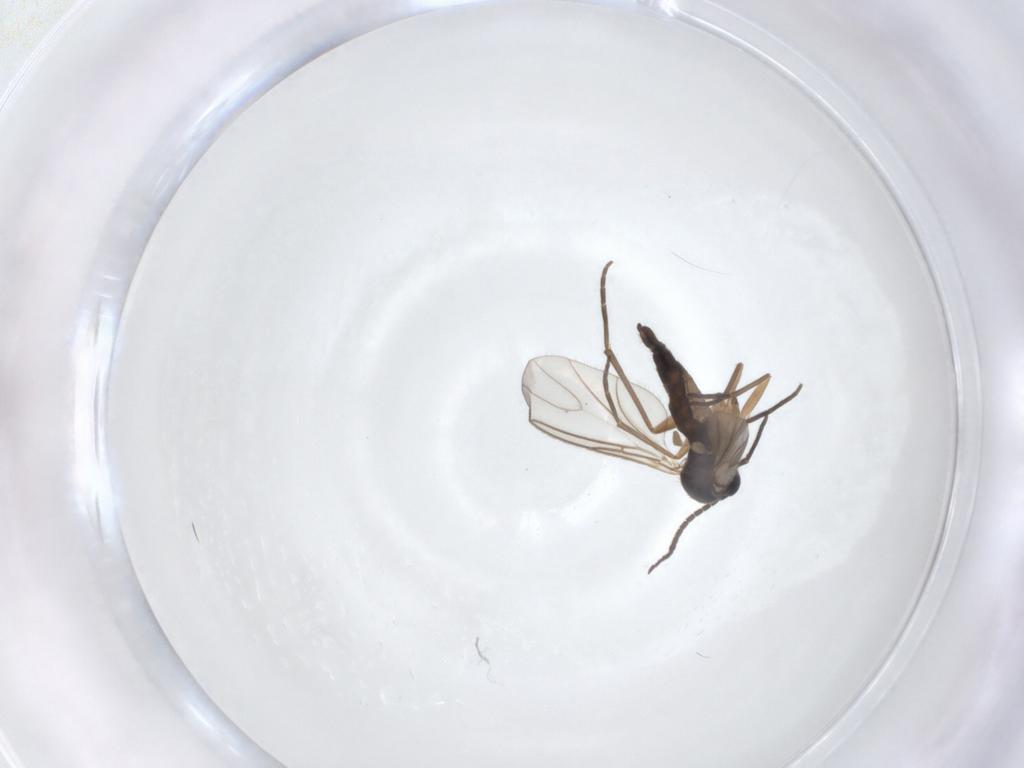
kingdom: Animalia
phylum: Arthropoda
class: Insecta
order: Diptera
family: Sciaridae
